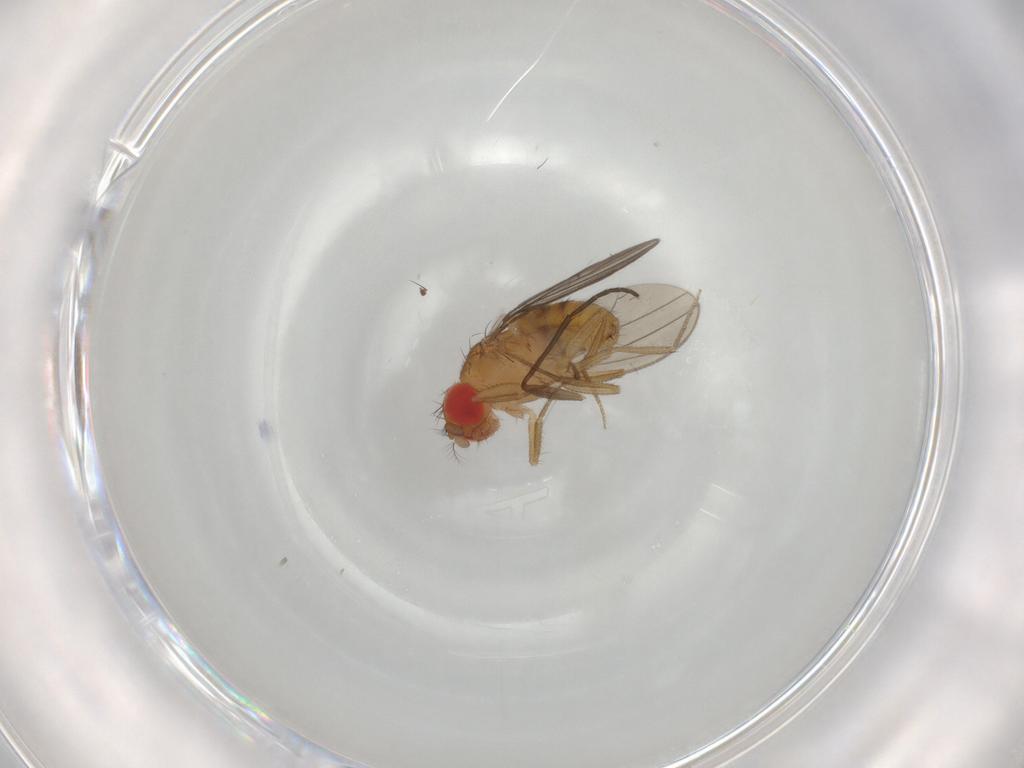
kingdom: Animalia
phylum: Arthropoda
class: Insecta
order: Diptera
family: Drosophilidae
